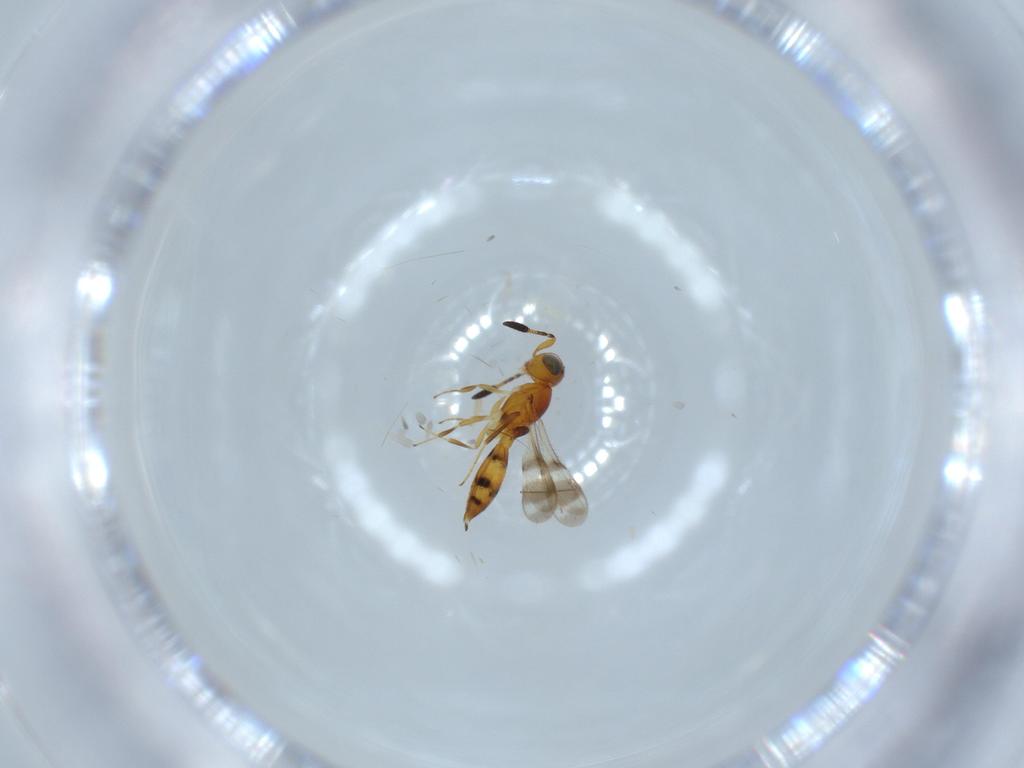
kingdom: Animalia
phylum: Arthropoda
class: Insecta
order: Hymenoptera
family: Scelionidae
